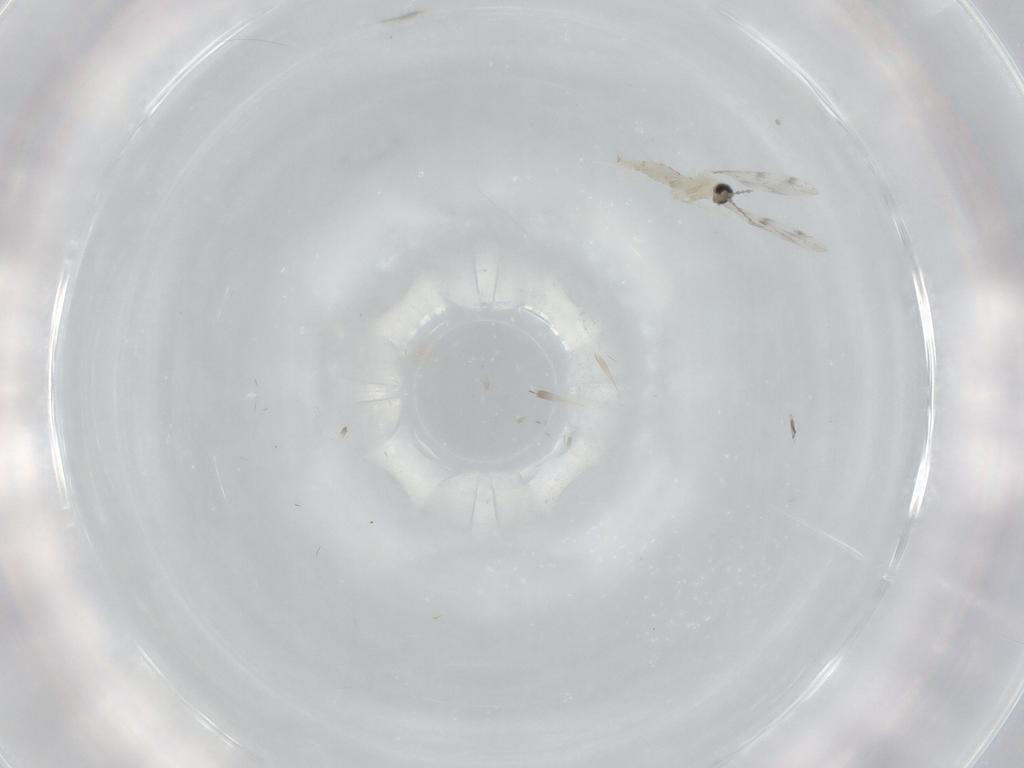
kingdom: Animalia
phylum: Arthropoda
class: Insecta
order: Diptera
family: Cecidomyiidae
